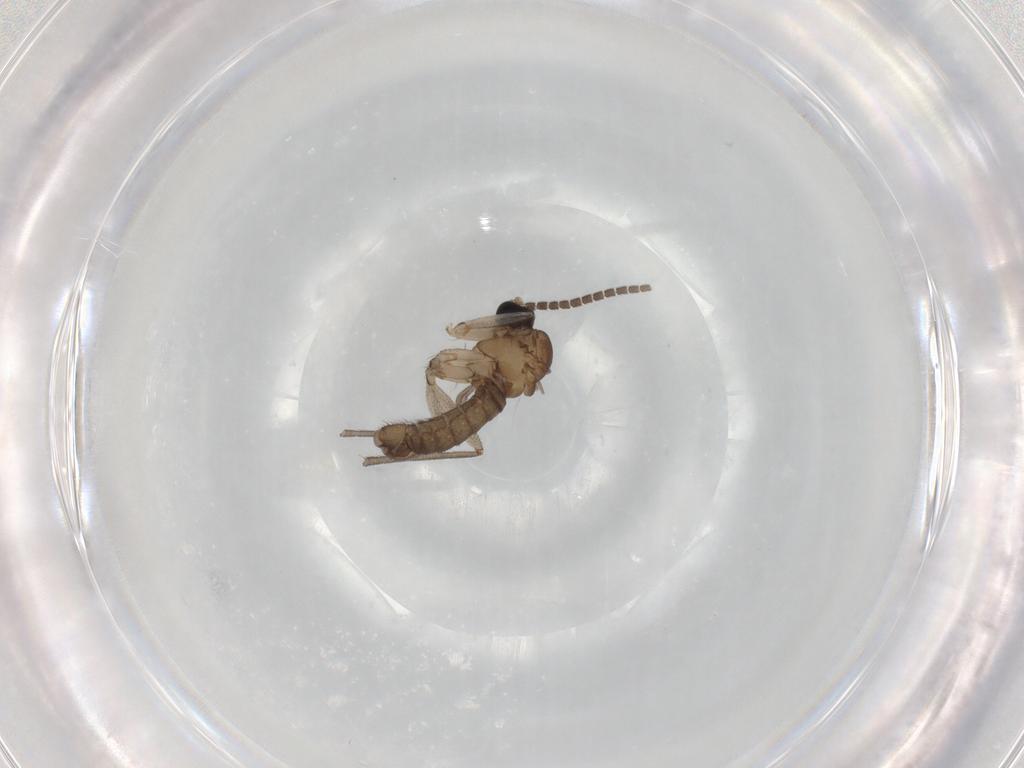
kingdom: Animalia
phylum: Arthropoda
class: Insecta
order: Diptera
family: Sciaridae
